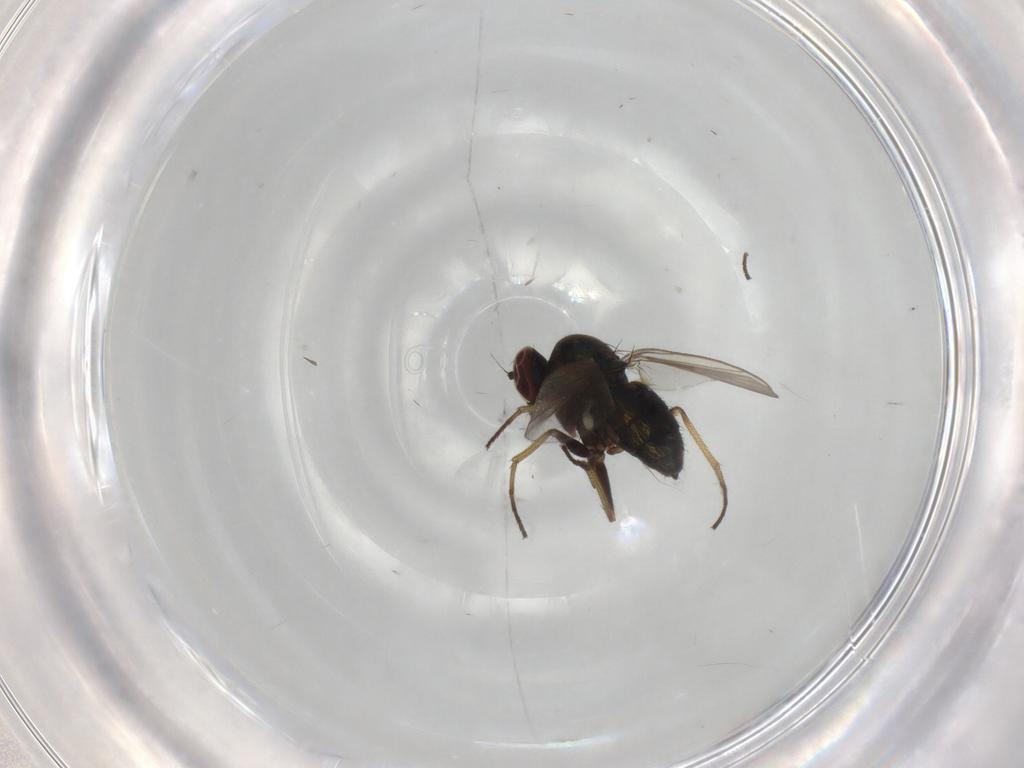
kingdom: Animalia
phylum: Arthropoda
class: Insecta
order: Diptera
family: Dolichopodidae
